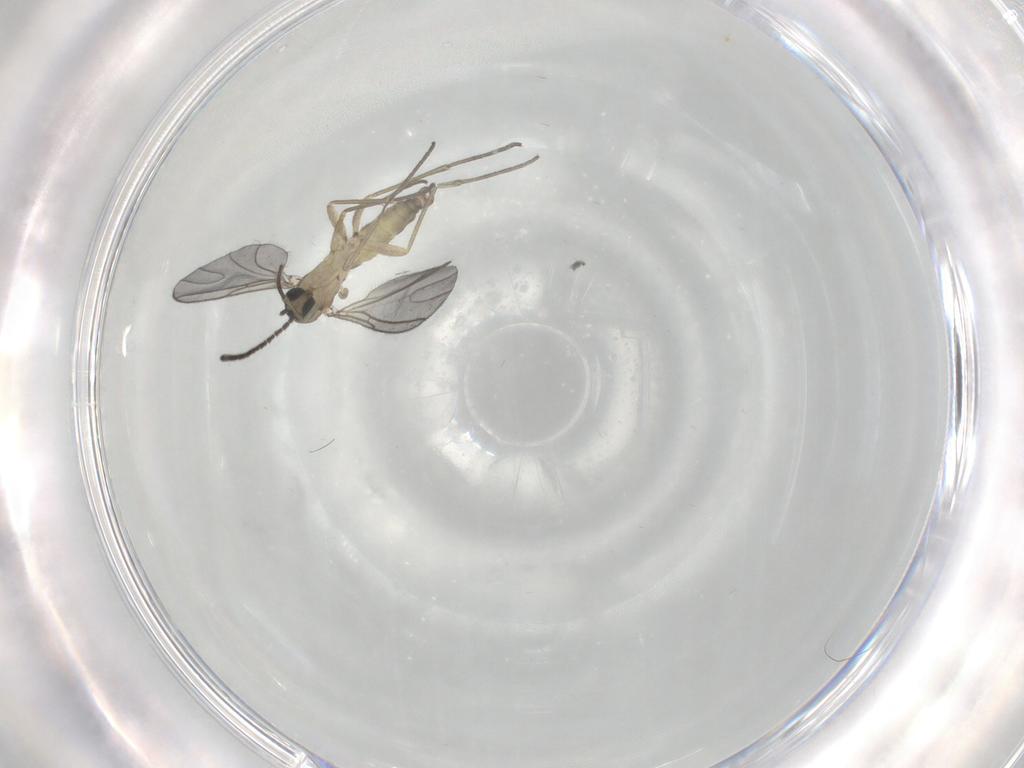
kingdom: Animalia
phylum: Arthropoda
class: Insecta
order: Diptera
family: Sciaridae
